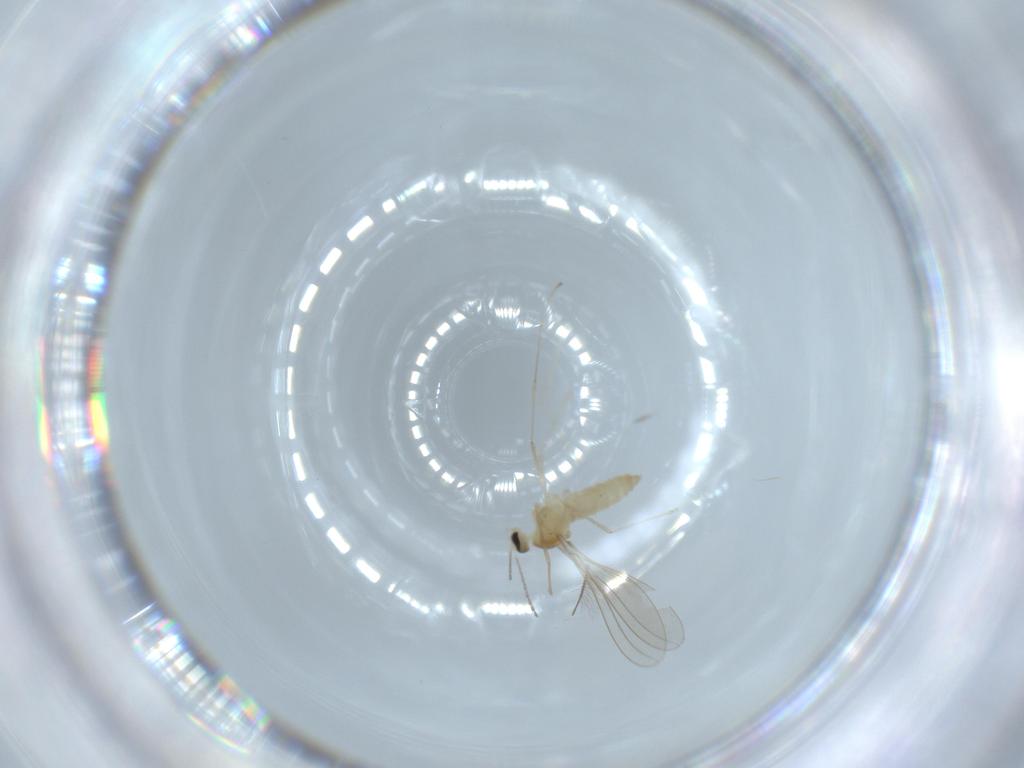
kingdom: Animalia
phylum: Arthropoda
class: Insecta
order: Diptera
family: Cecidomyiidae
